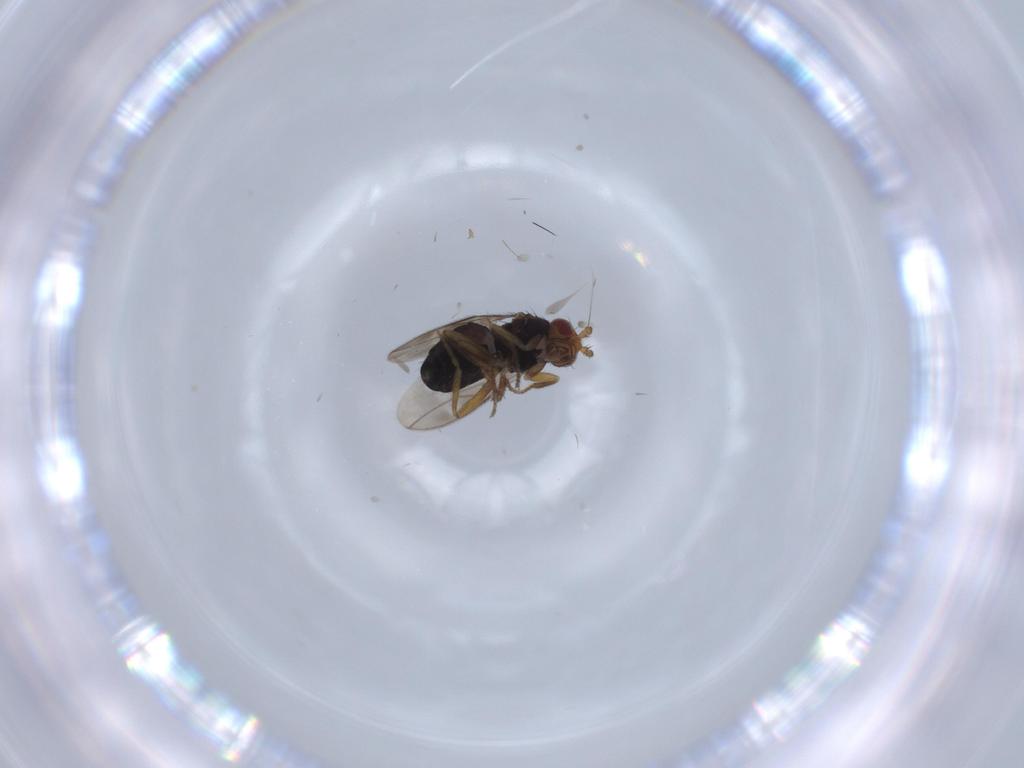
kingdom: Animalia
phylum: Arthropoda
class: Insecta
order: Diptera
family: Sphaeroceridae
